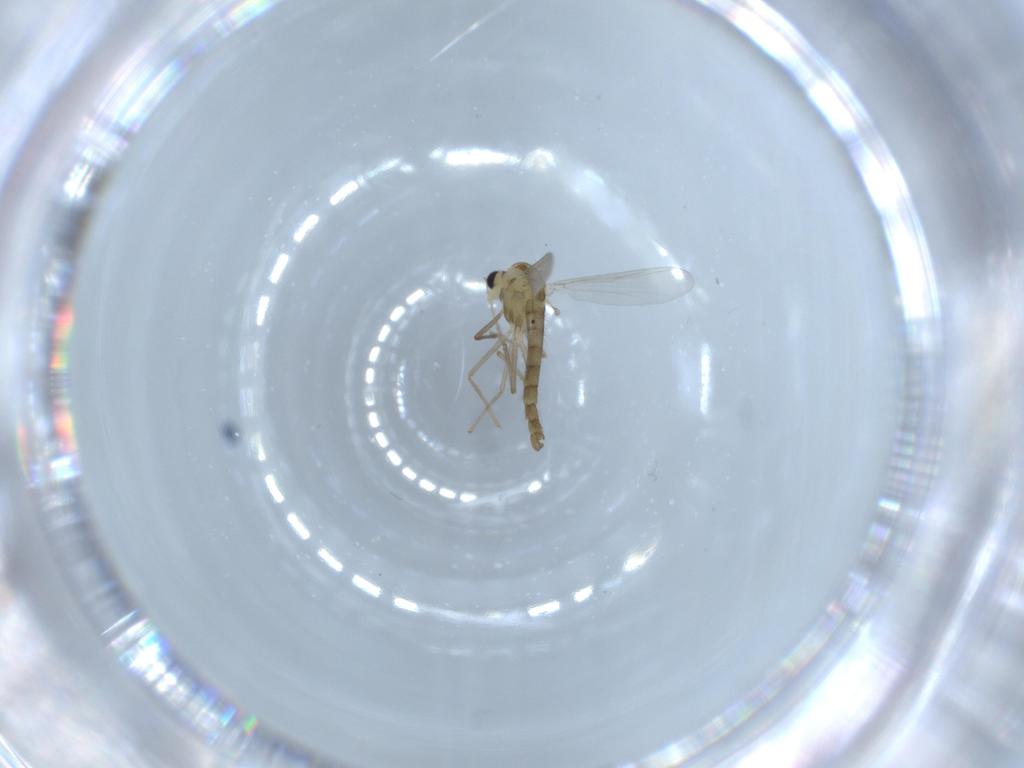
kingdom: Animalia
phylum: Arthropoda
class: Insecta
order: Diptera
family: Chironomidae
